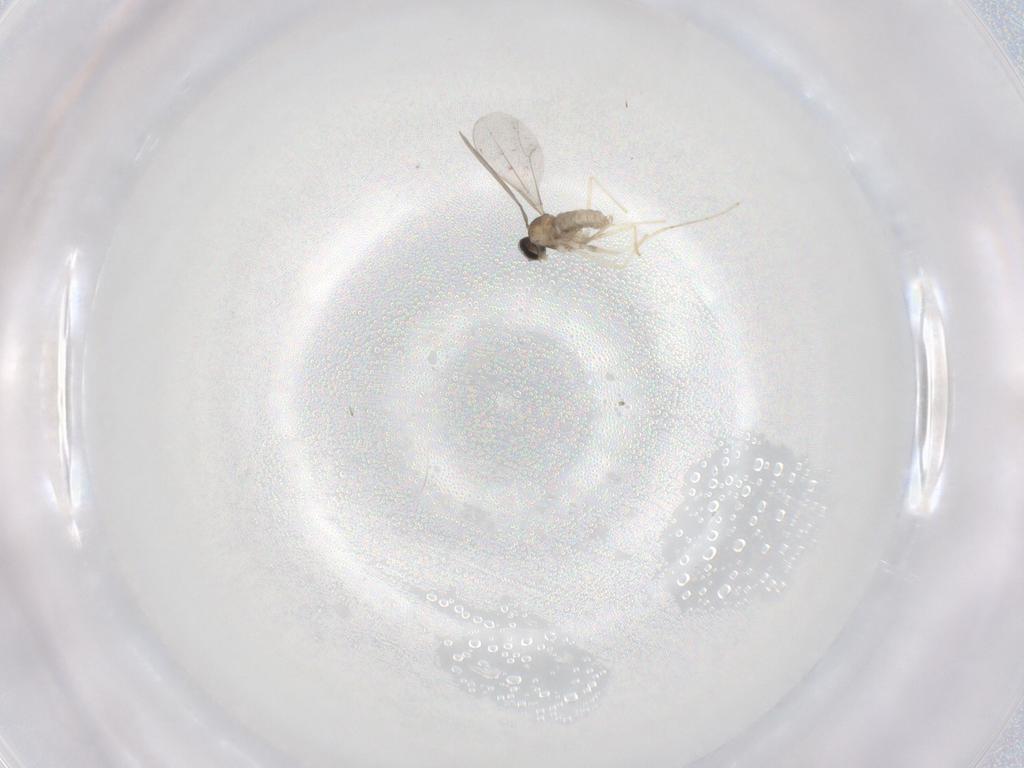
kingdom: Animalia
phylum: Arthropoda
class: Insecta
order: Diptera
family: Cecidomyiidae
